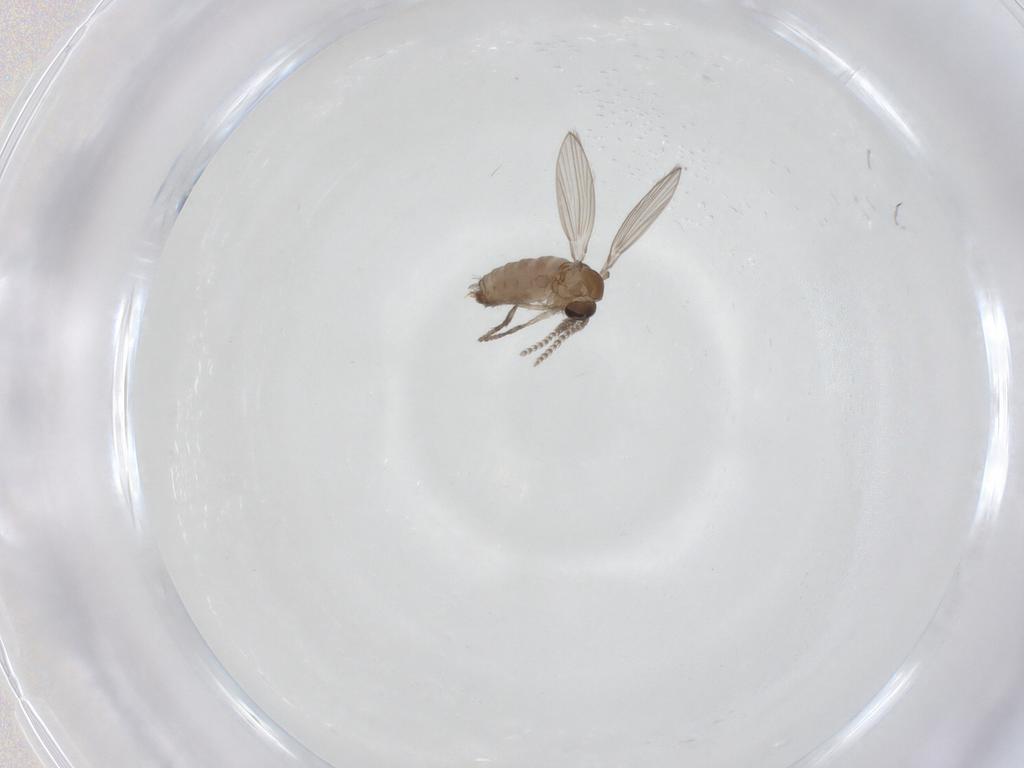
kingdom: Animalia
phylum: Arthropoda
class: Insecta
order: Diptera
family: Psychodidae
